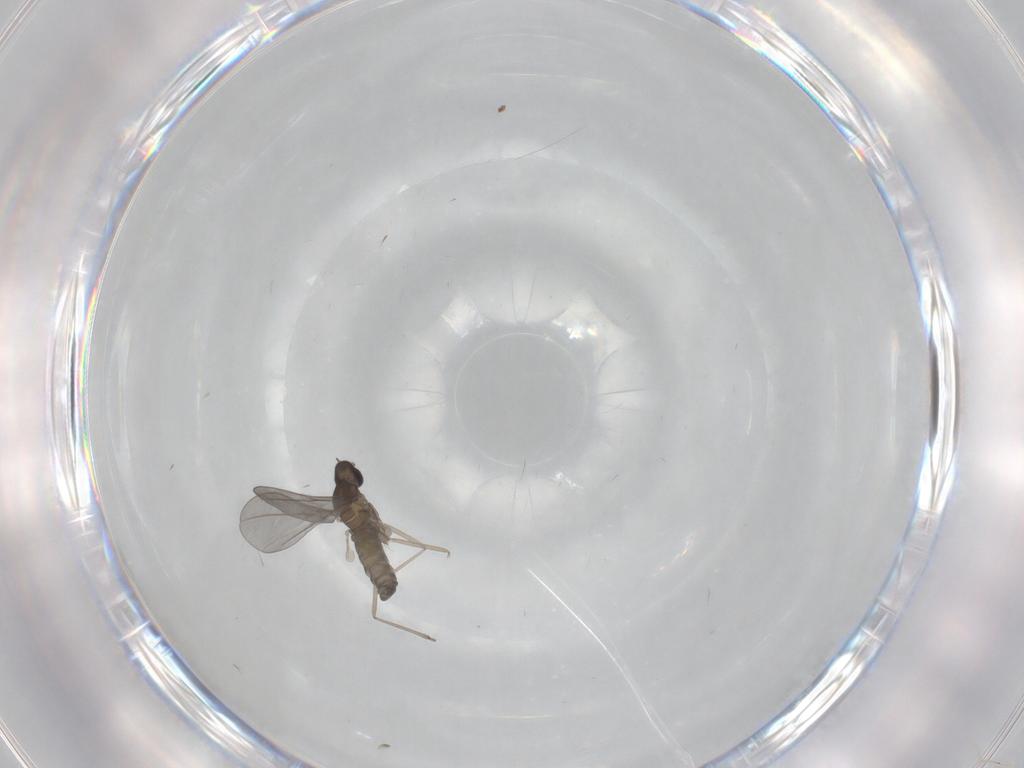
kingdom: Animalia
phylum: Arthropoda
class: Insecta
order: Diptera
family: Cecidomyiidae
